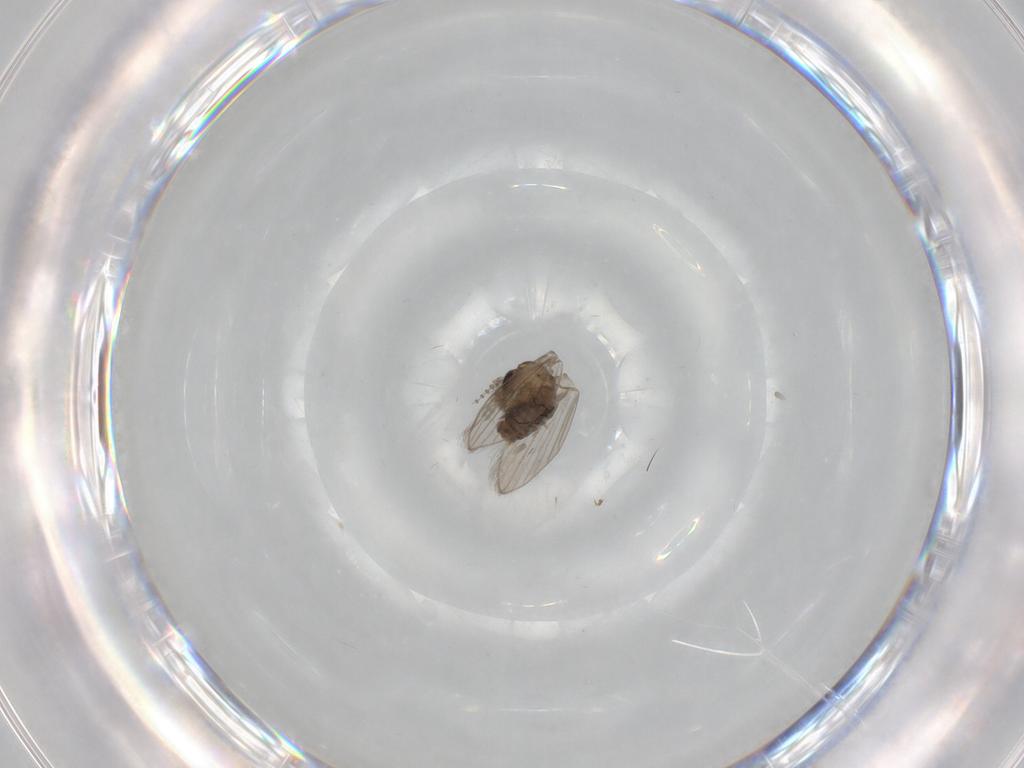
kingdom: Animalia
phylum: Arthropoda
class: Insecta
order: Diptera
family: Psychodidae
